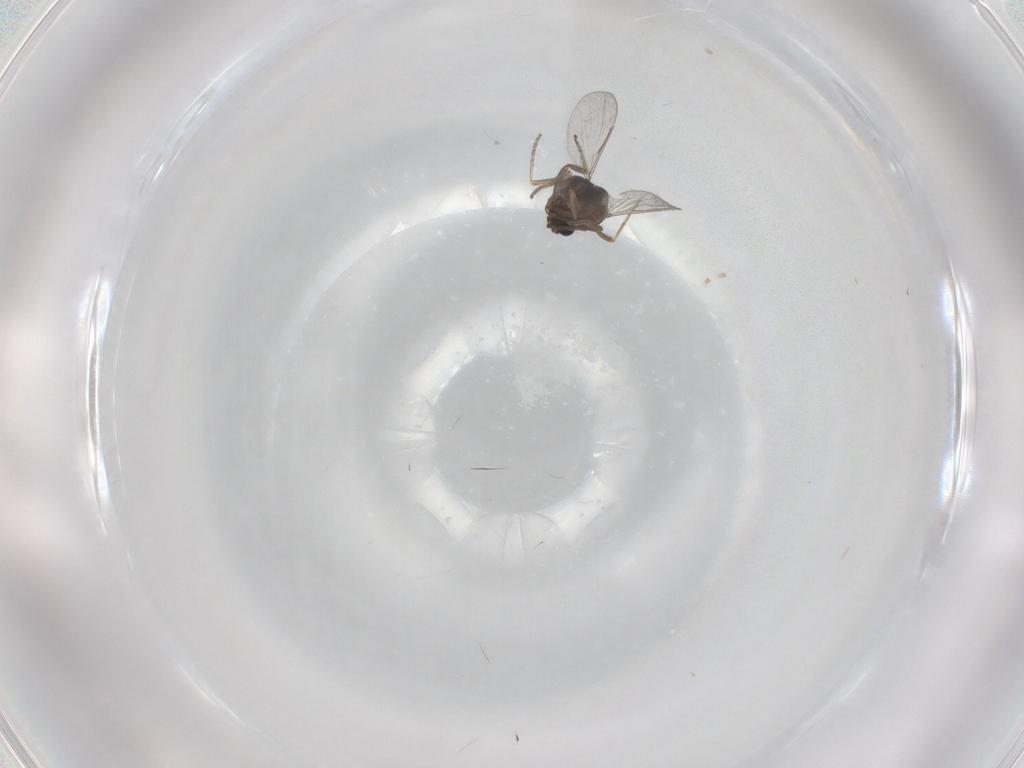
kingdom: Animalia
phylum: Arthropoda
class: Insecta
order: Diptera
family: Ceratopogonidae
